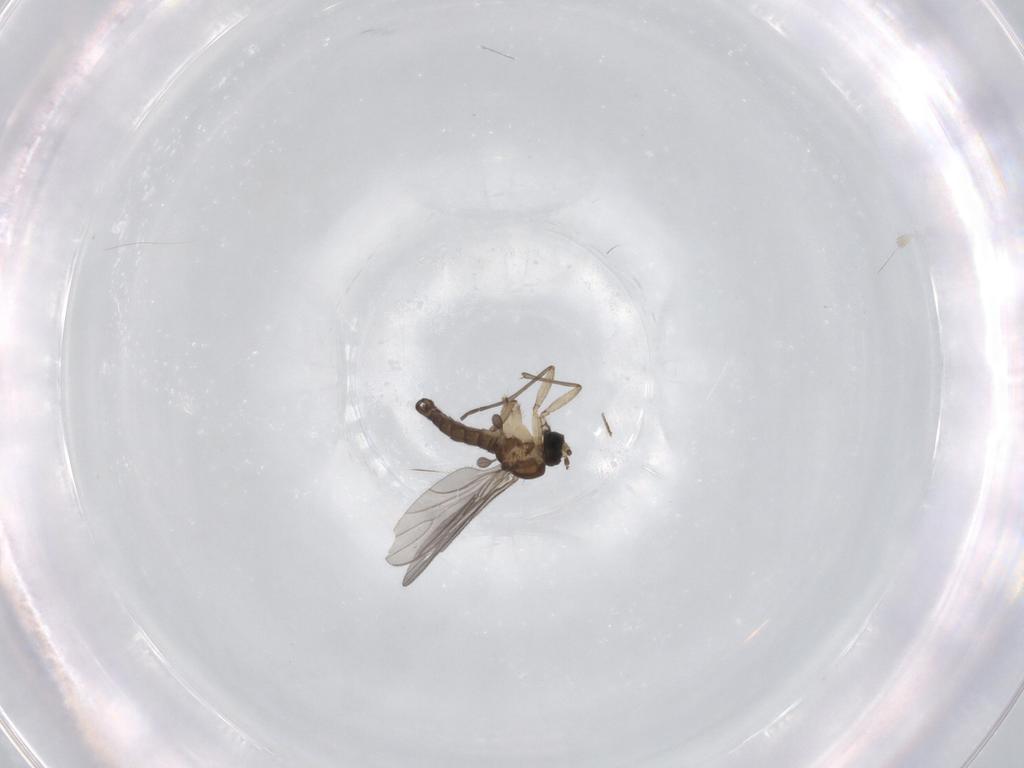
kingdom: Animalia
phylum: Arthropoda
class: Insecta
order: Diptera
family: Sciaridae
